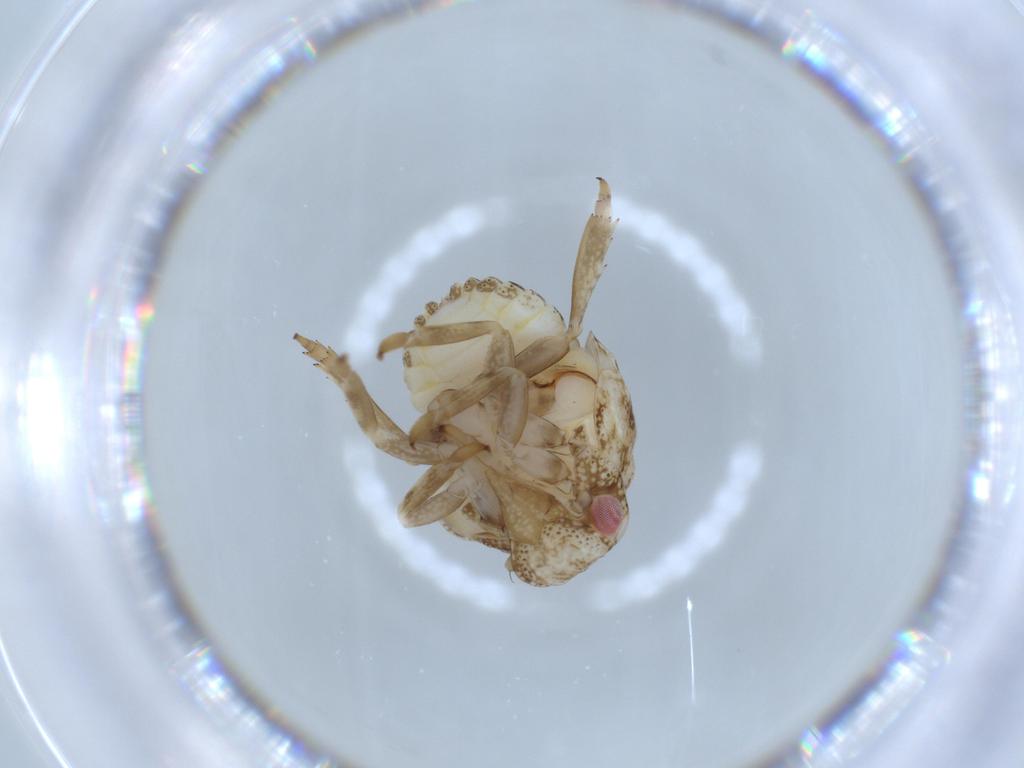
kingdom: Animalia
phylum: Arthropoda
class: Insecta
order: Hemiptera
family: Acanaloniidae
